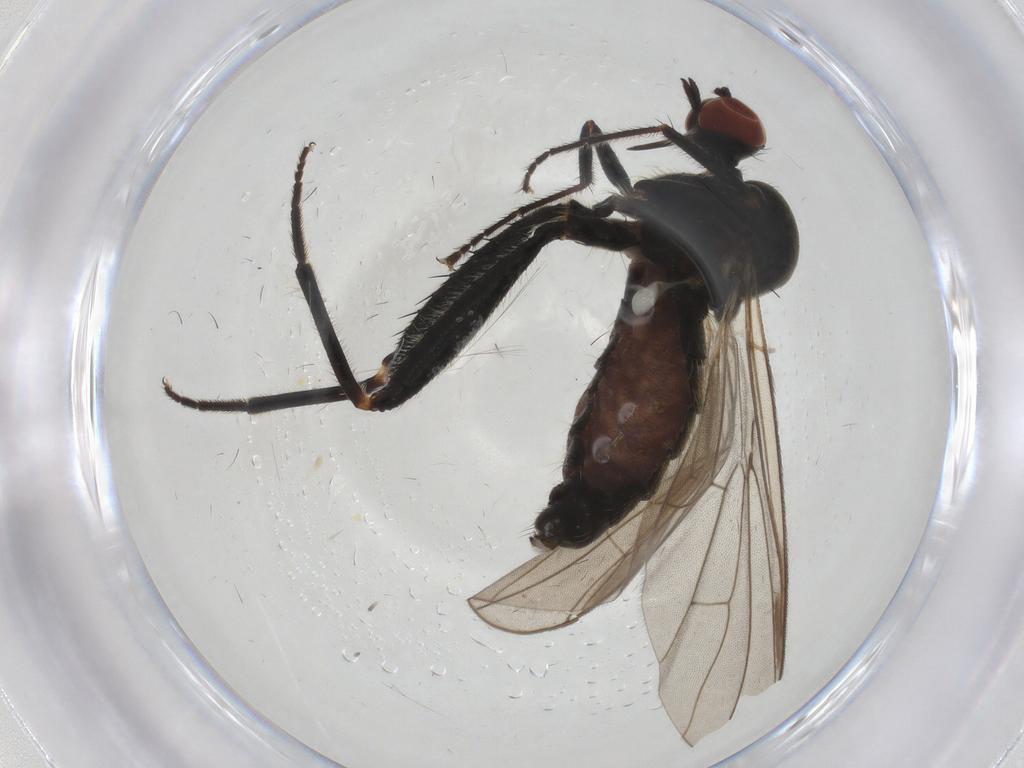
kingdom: Animalia
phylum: Arthropoda
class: Insecta
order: Diptera
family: Hybotidae
